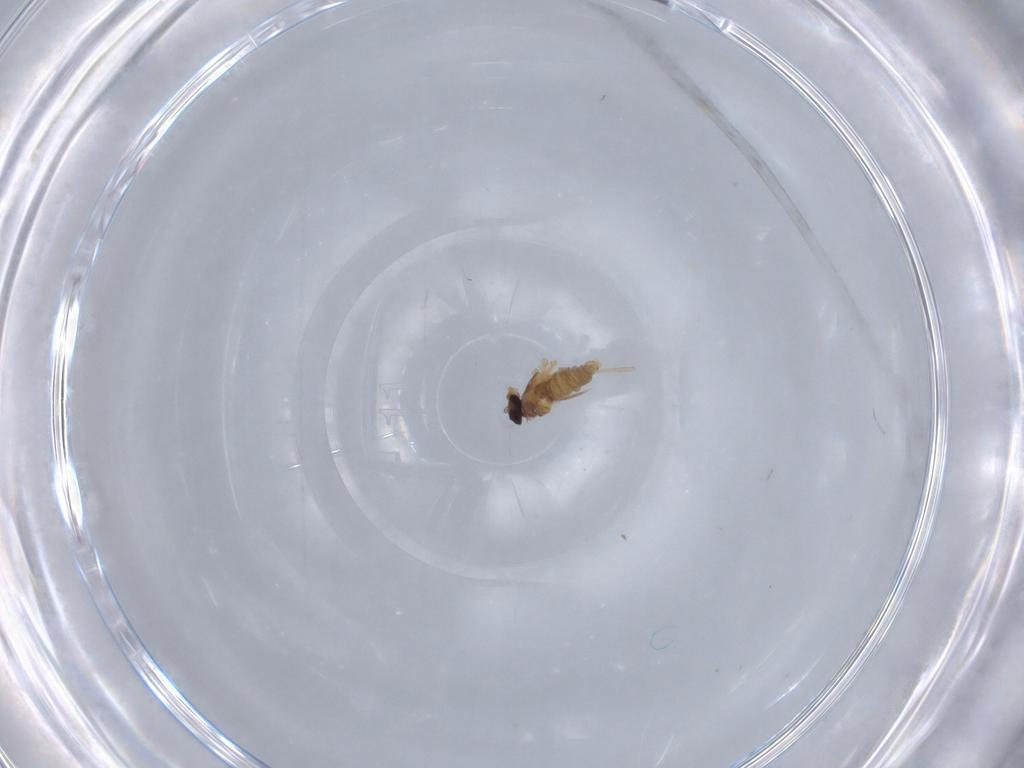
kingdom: Animalia
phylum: Arthropoda
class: Insecta
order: Diptera
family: Cecidomyiidae
